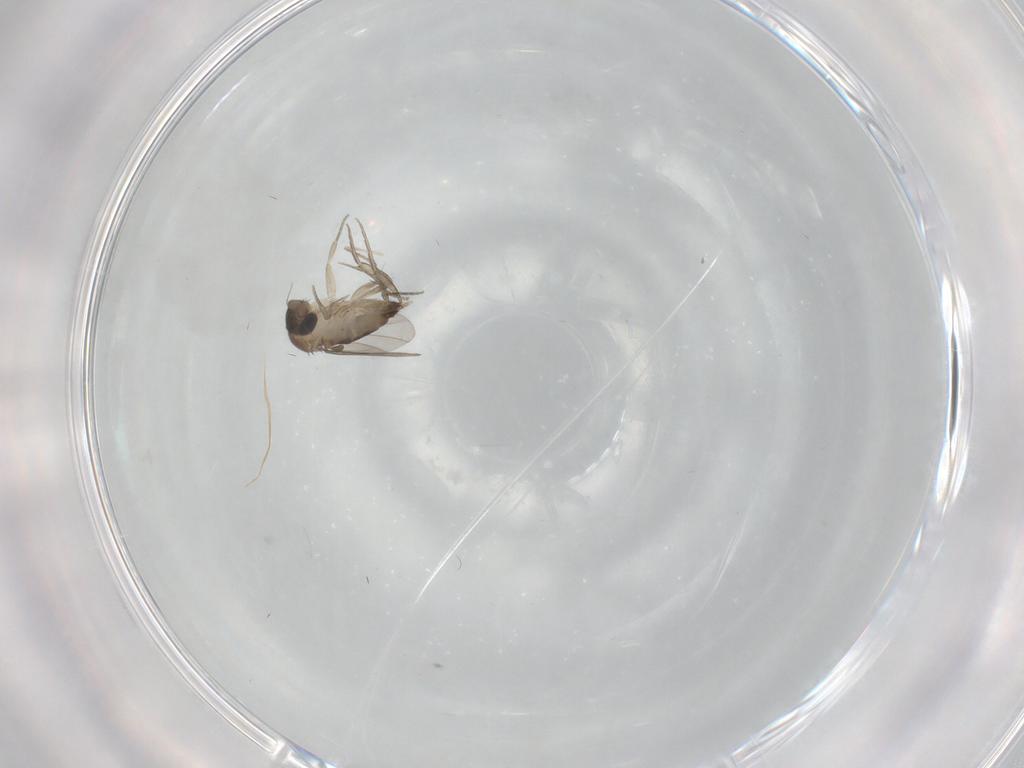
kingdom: Animalia
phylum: Arthropoda
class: Insecta
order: Diptera
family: Phoridae
